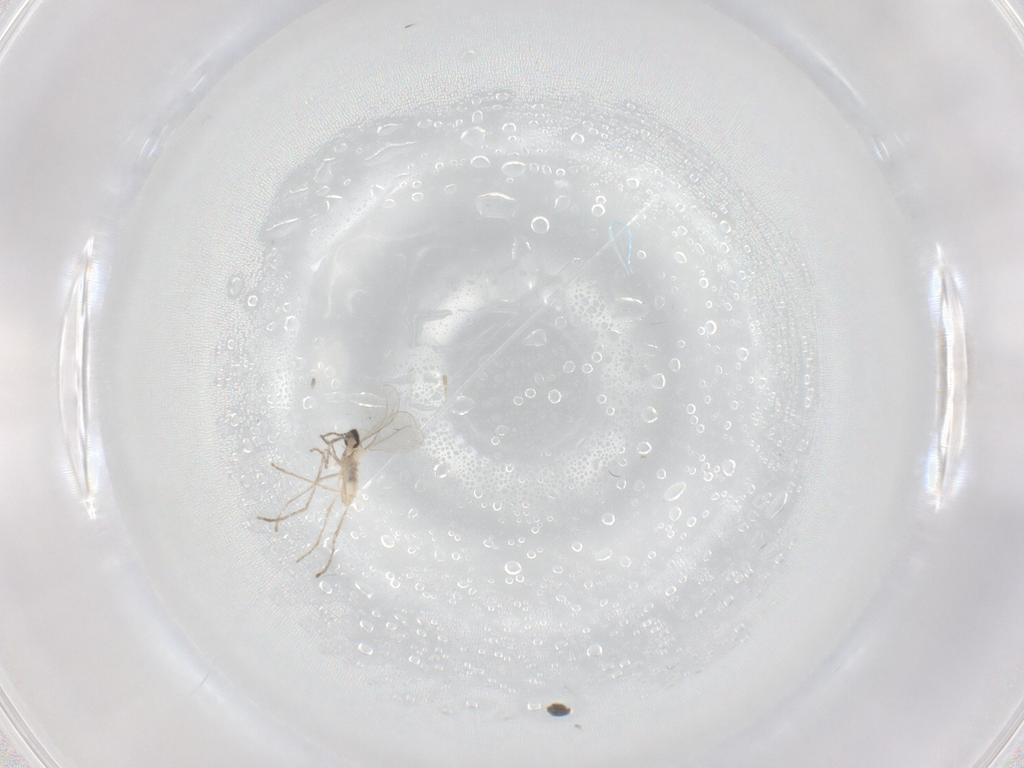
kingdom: Animalia
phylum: Arthropoda
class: Insecta
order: Diptera
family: Cecidomyiidae
